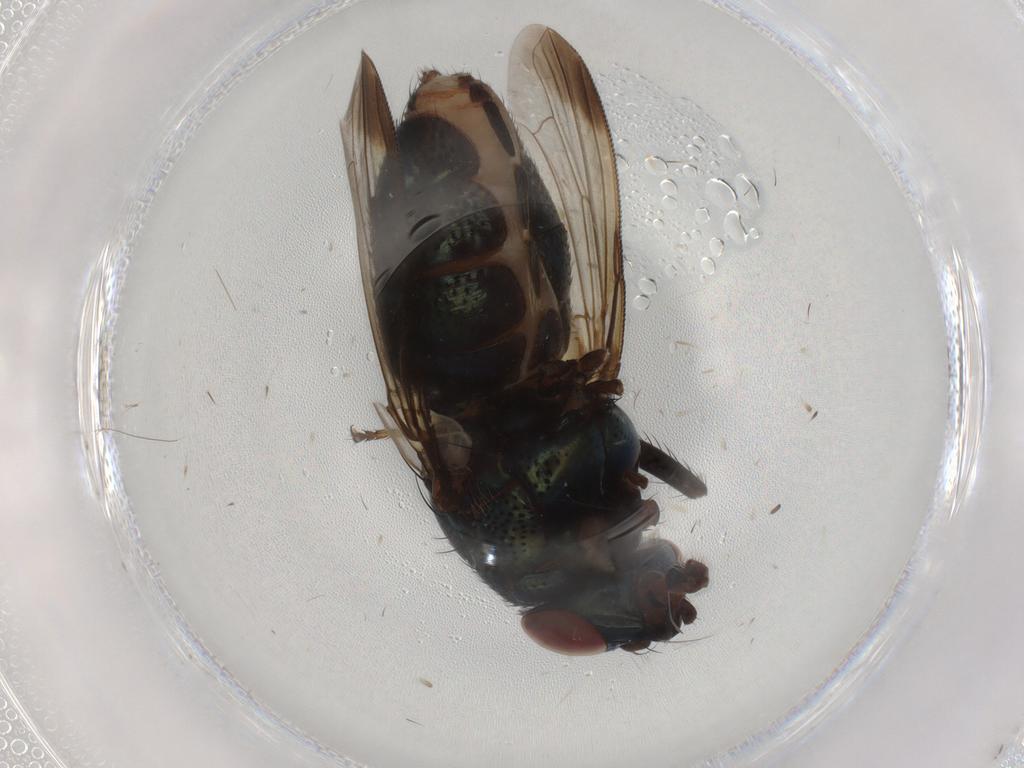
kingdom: Animalia
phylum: Arthropoda
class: Insecta
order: Diptera
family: Calliphoridae
